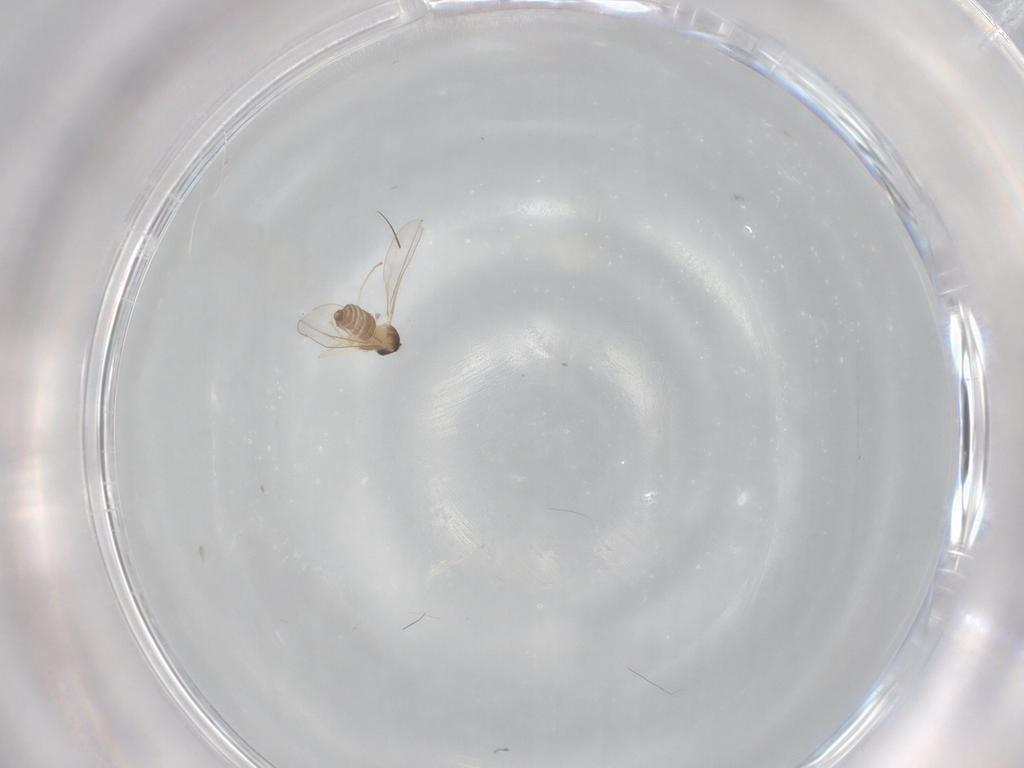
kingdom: Animalia
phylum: Arthropoda
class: Insecta
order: Diptera
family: Cecidomyiidae
